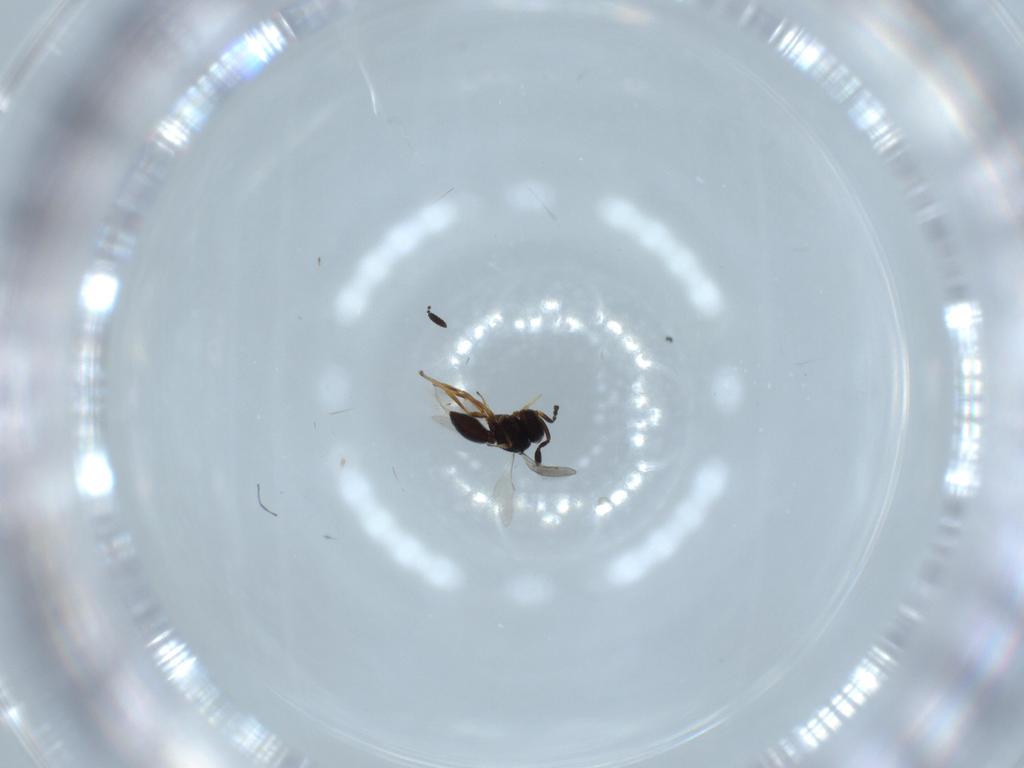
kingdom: Animalia
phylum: Arthropoda
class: Insecta
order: Hymenoptera
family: Scelionidae
